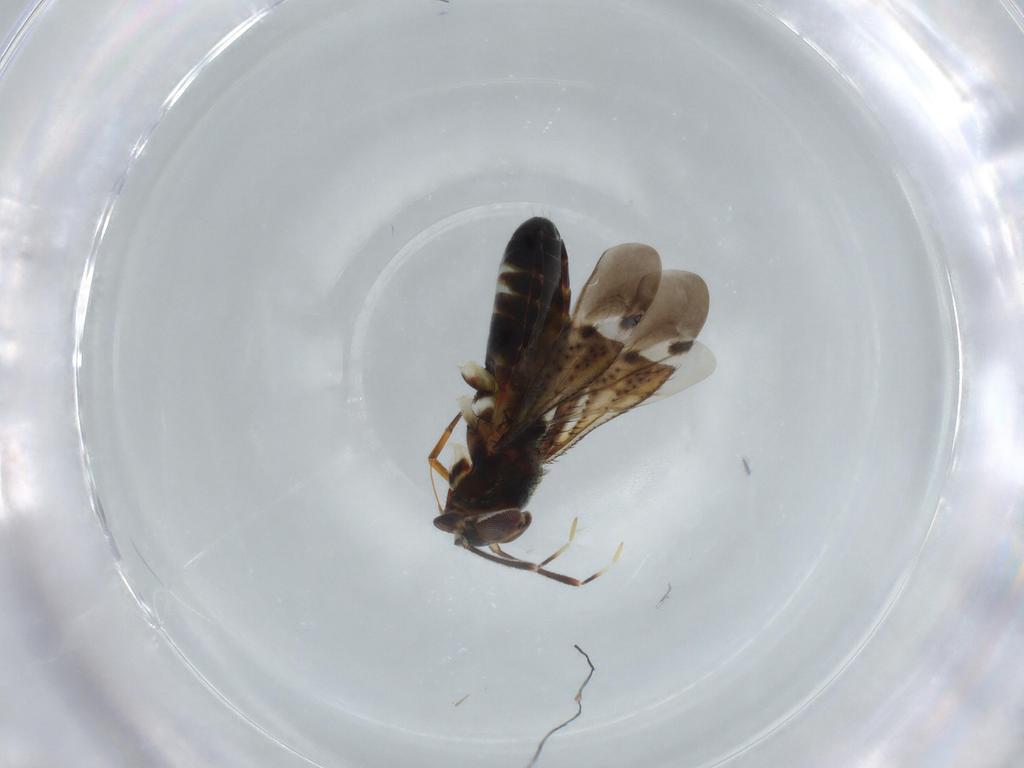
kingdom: Animalia
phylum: Arthropoda
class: Insecta
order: Hemiptera
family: Miridae
